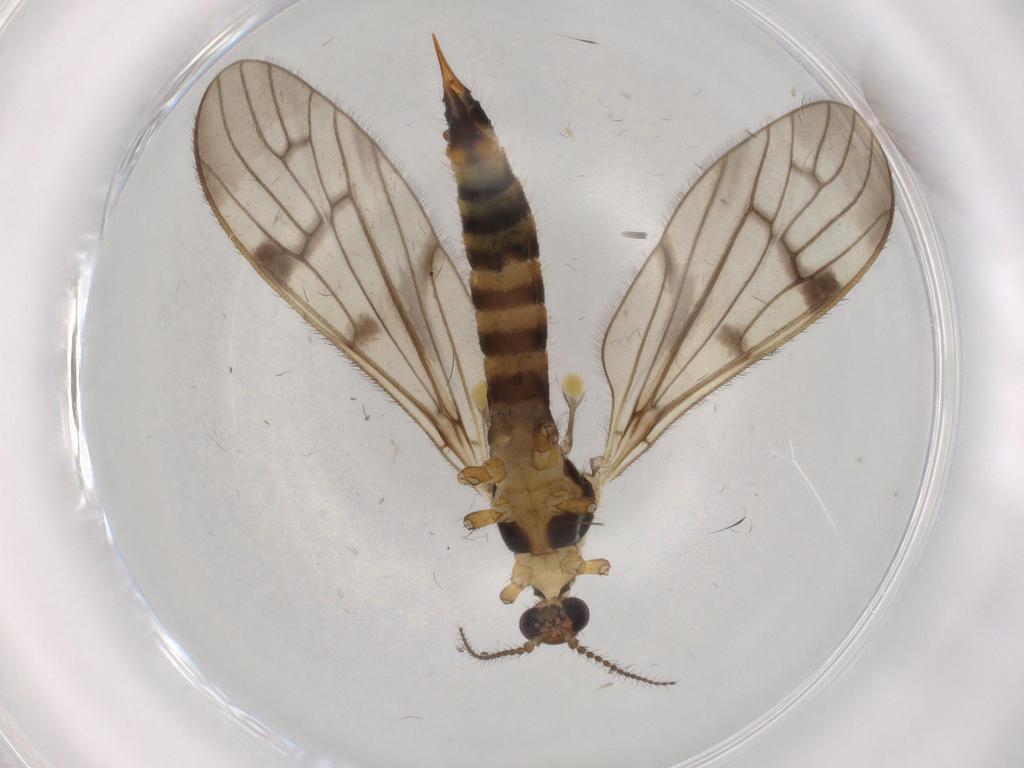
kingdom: Animalia
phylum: Arthropoda
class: Insecta
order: Diptera
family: Limoniidae
